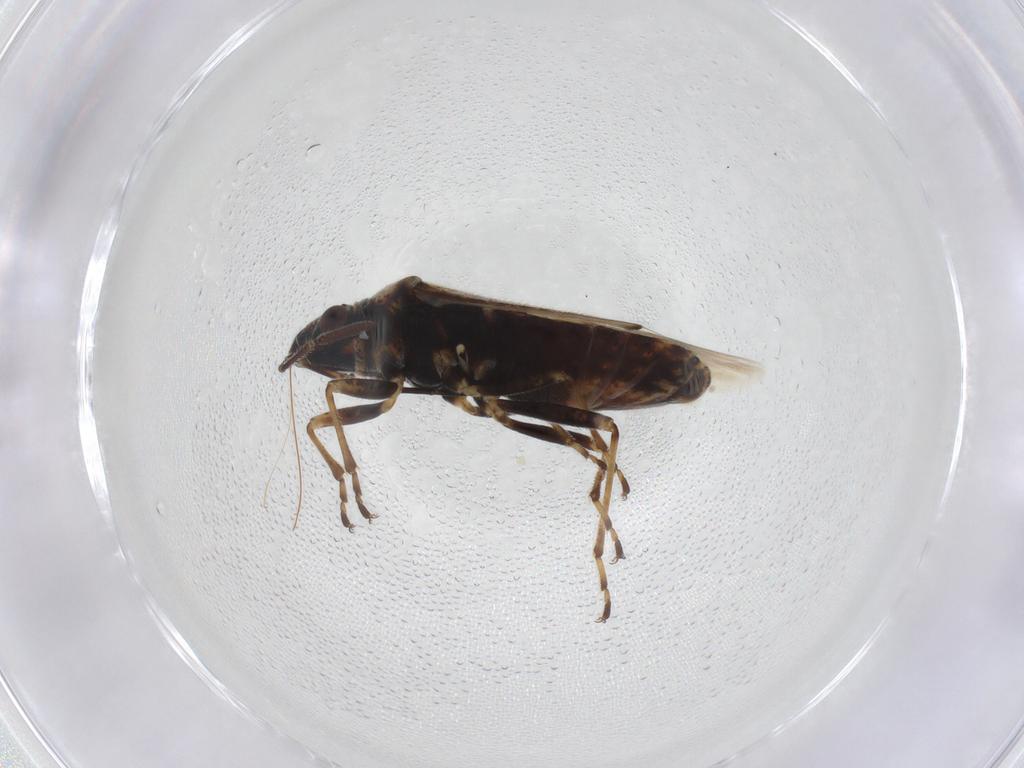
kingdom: Animalia
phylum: Arthropoda
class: Insecta
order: Hemiptera
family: Lygaeidae
